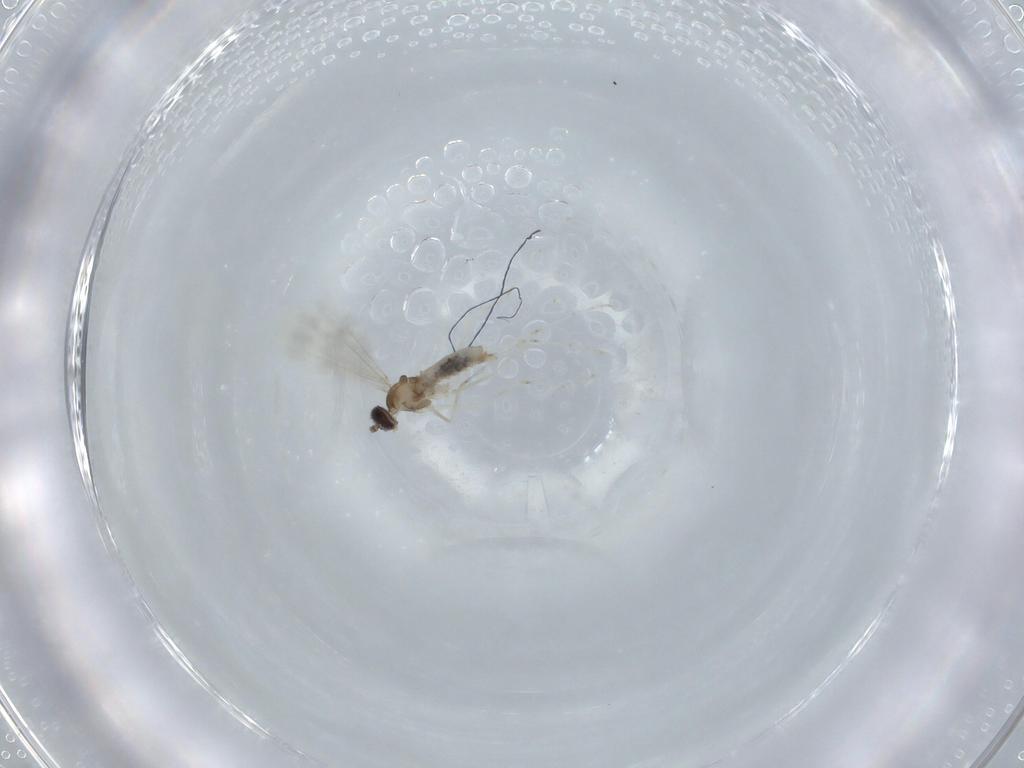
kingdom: Animalia
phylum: Arthropoda
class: Insecta
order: Diptera
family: Cecidomyiidae
